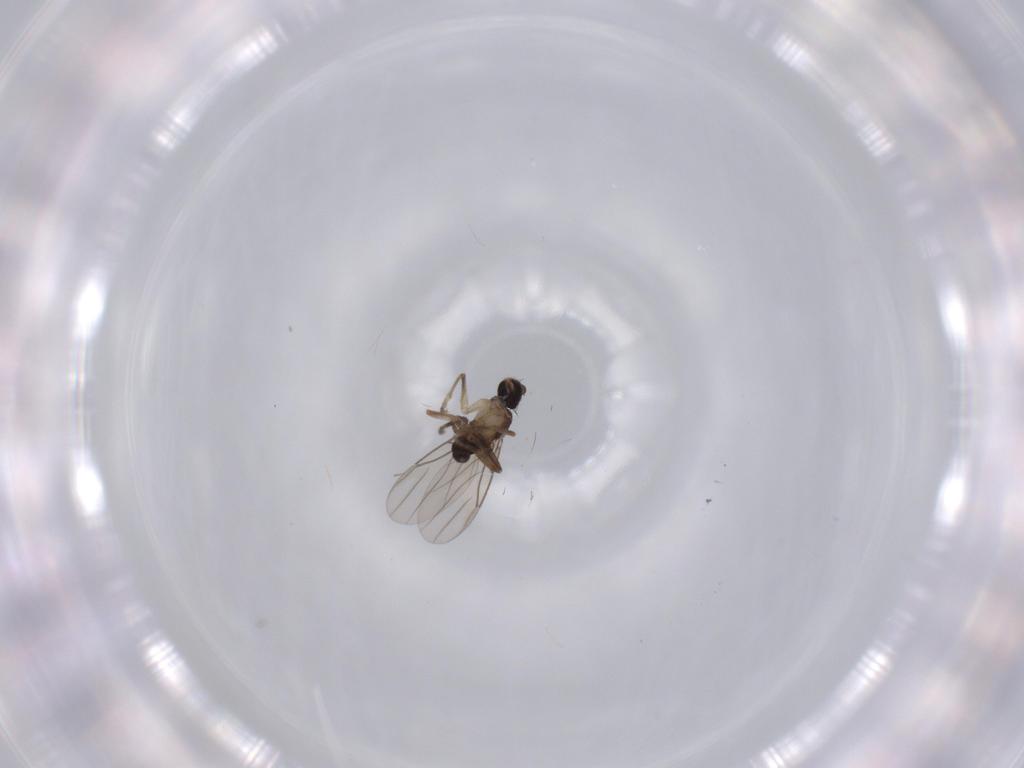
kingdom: Animalia
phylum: Arthropoda
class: Insecta
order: Diptera
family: Phoridae
